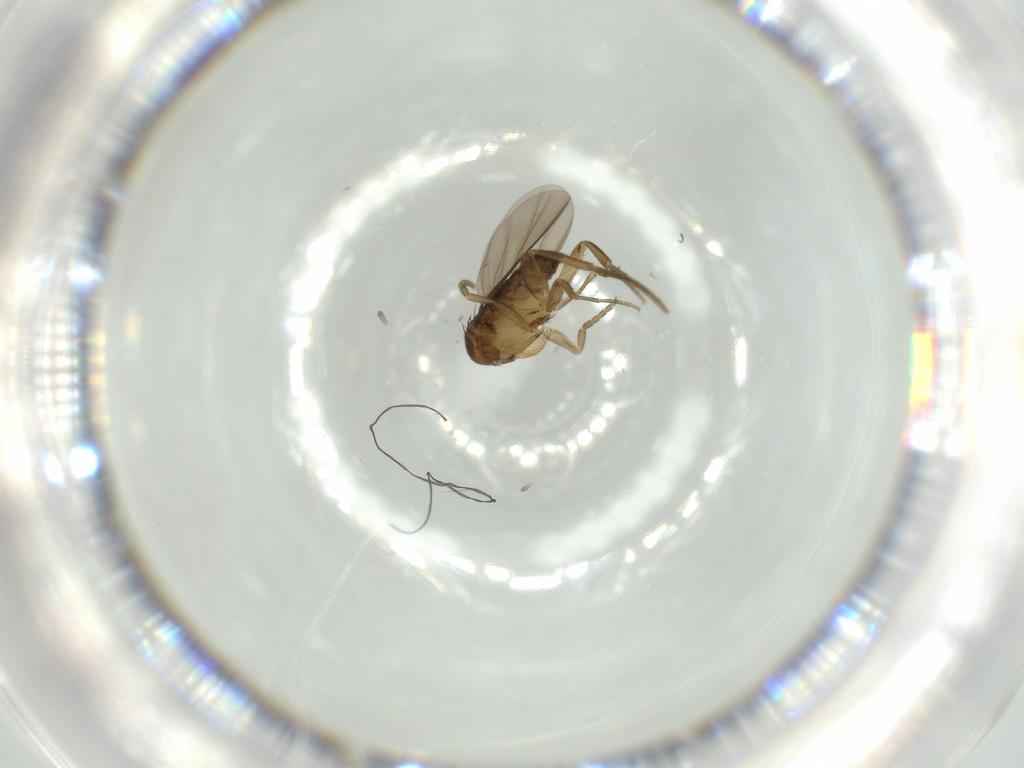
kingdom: Animalia
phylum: Arthropoda
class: Insecta
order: Diptera
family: Phoridae
